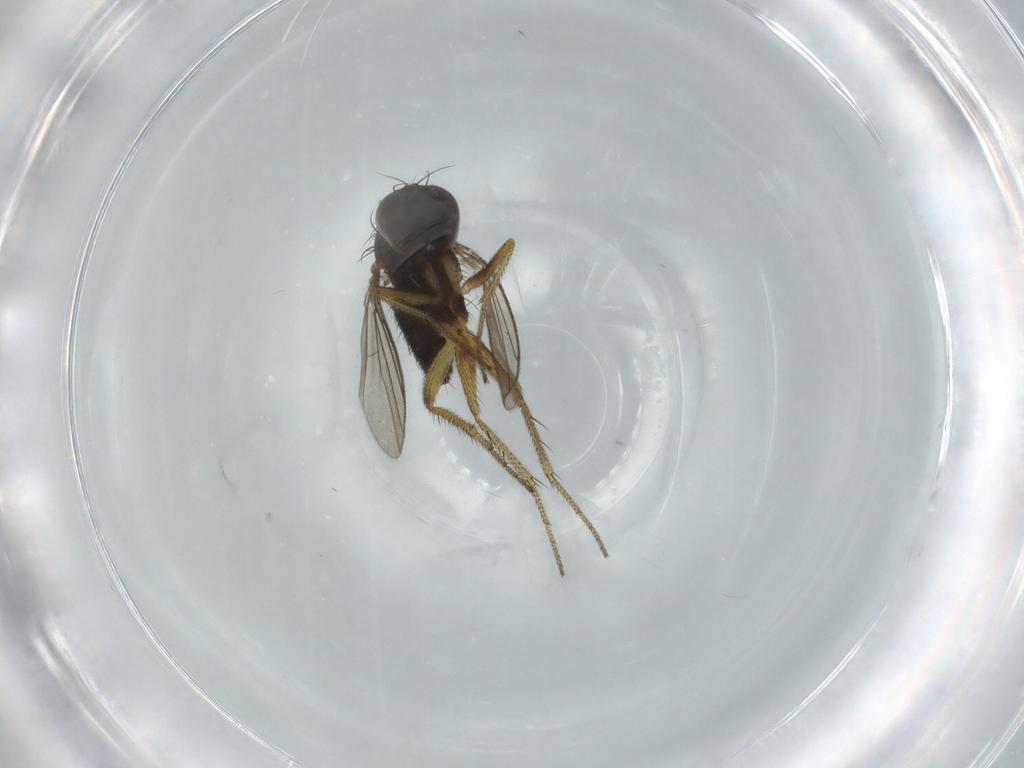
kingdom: Animalia
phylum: Arthropoda
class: Insecta
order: Diptera
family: Dolichopodidae
